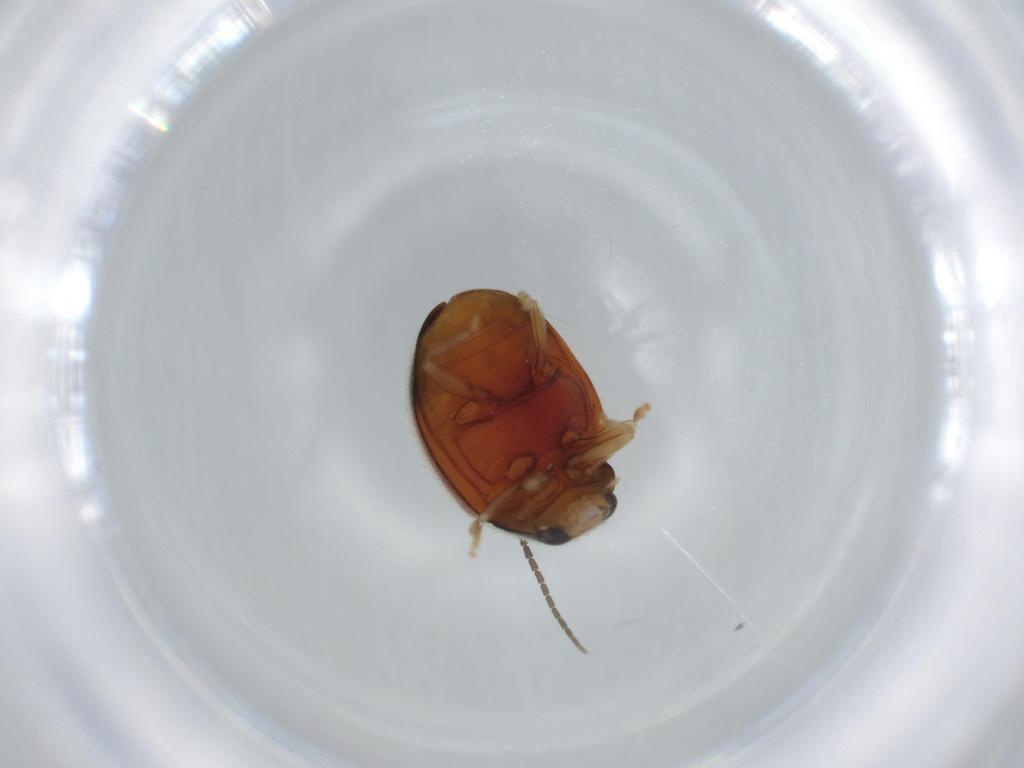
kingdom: Animalia
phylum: Arthropoda
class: Insecta
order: Coleoptera
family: Coccinellidae
